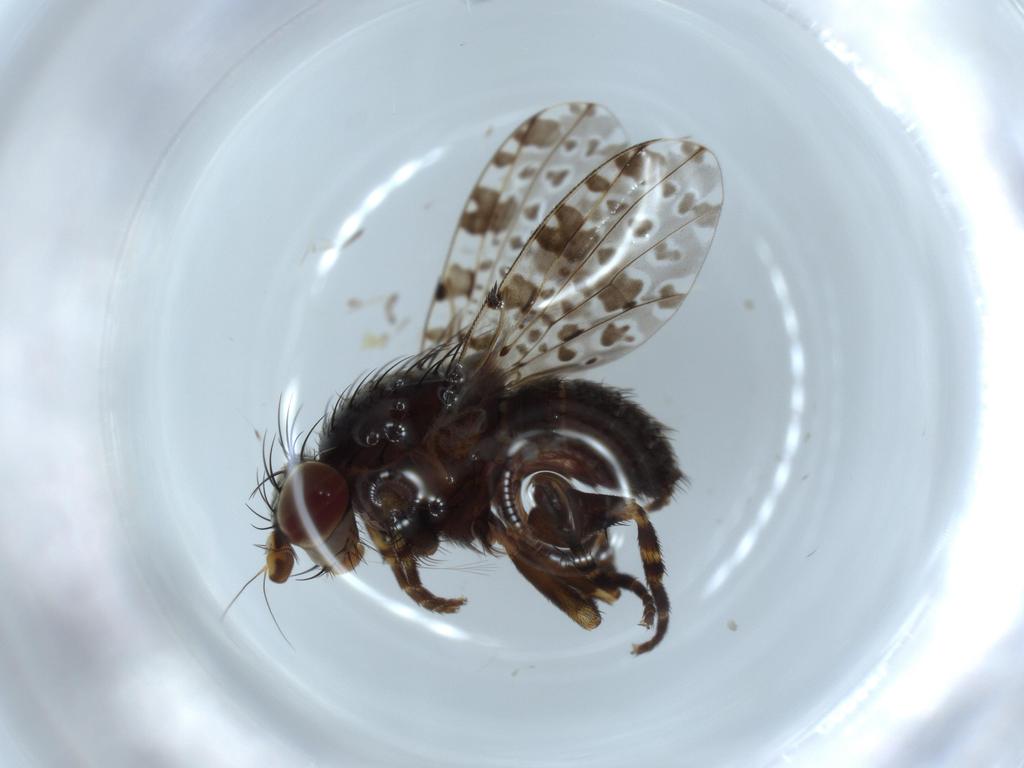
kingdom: Animalia
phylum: Arthropoda
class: Insecta
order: Diptera
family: Odiniidae
